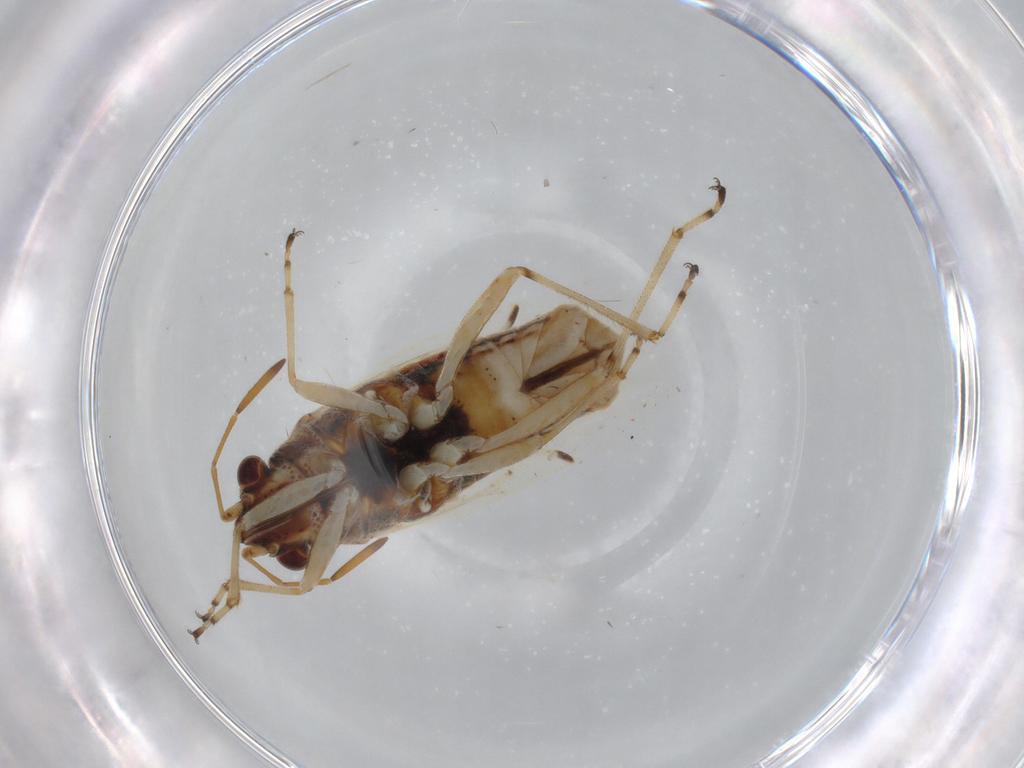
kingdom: Animalia
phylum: Arthropoda
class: Insecta
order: Hemiptera
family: Lygaeidae
